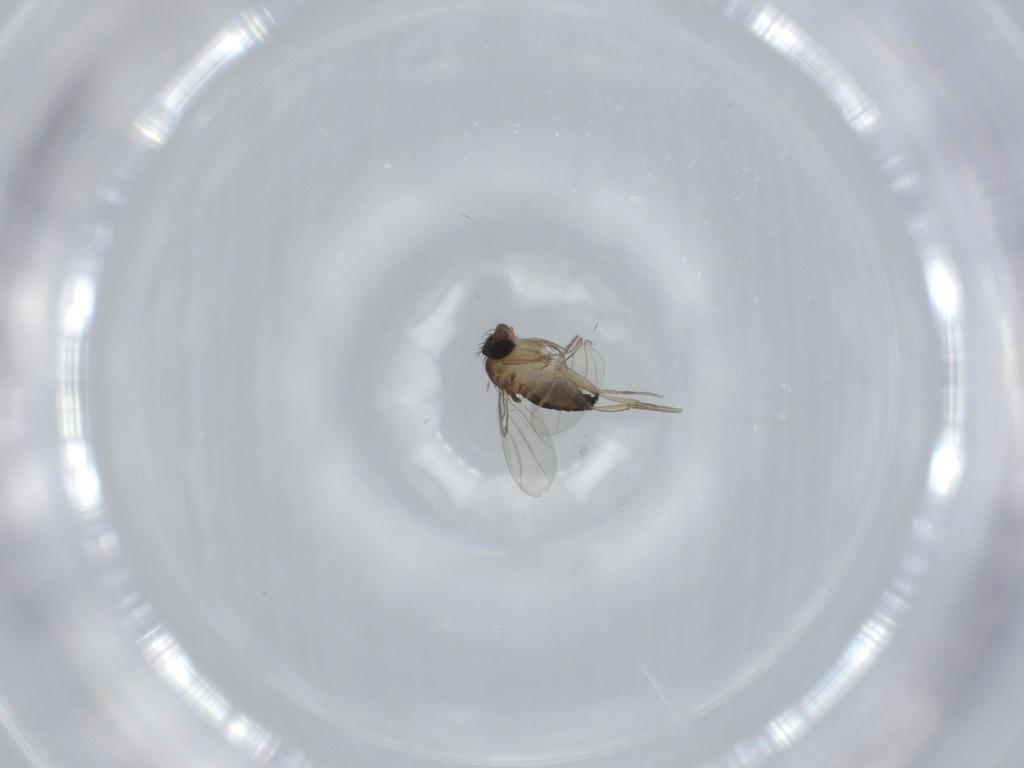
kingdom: Animalia
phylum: Arthropoda
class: Insecta
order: Diptera
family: Phoridae
